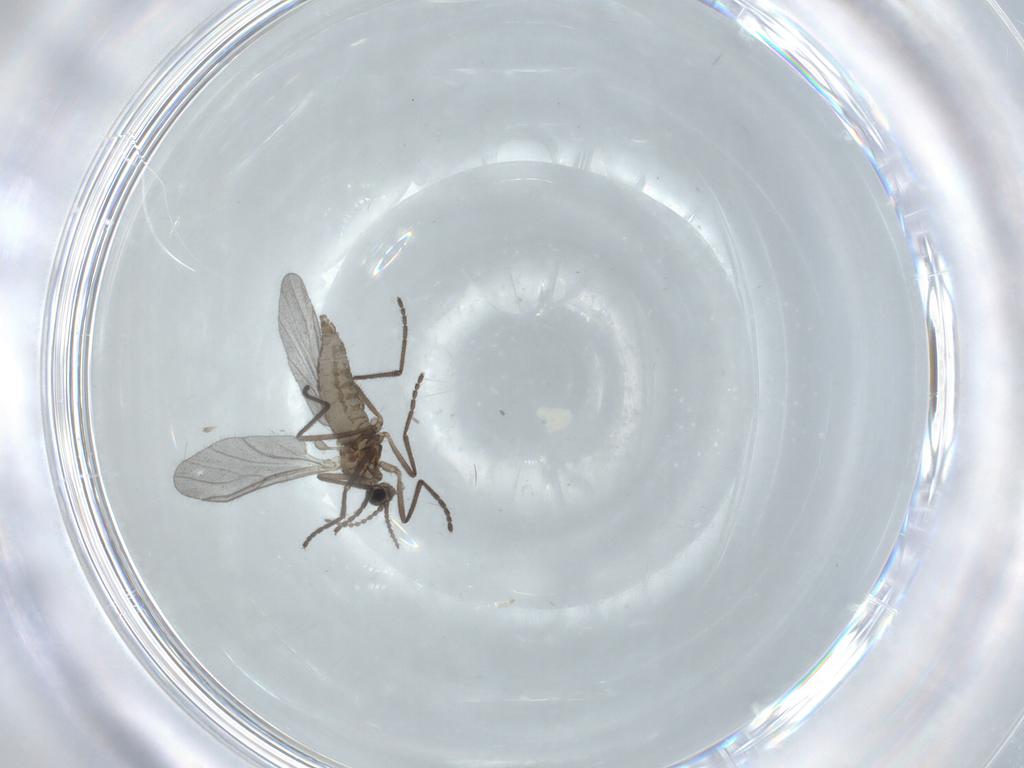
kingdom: Animalia
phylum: Arthropoda
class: Insecta
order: Diptera
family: Cecidomyiidae
